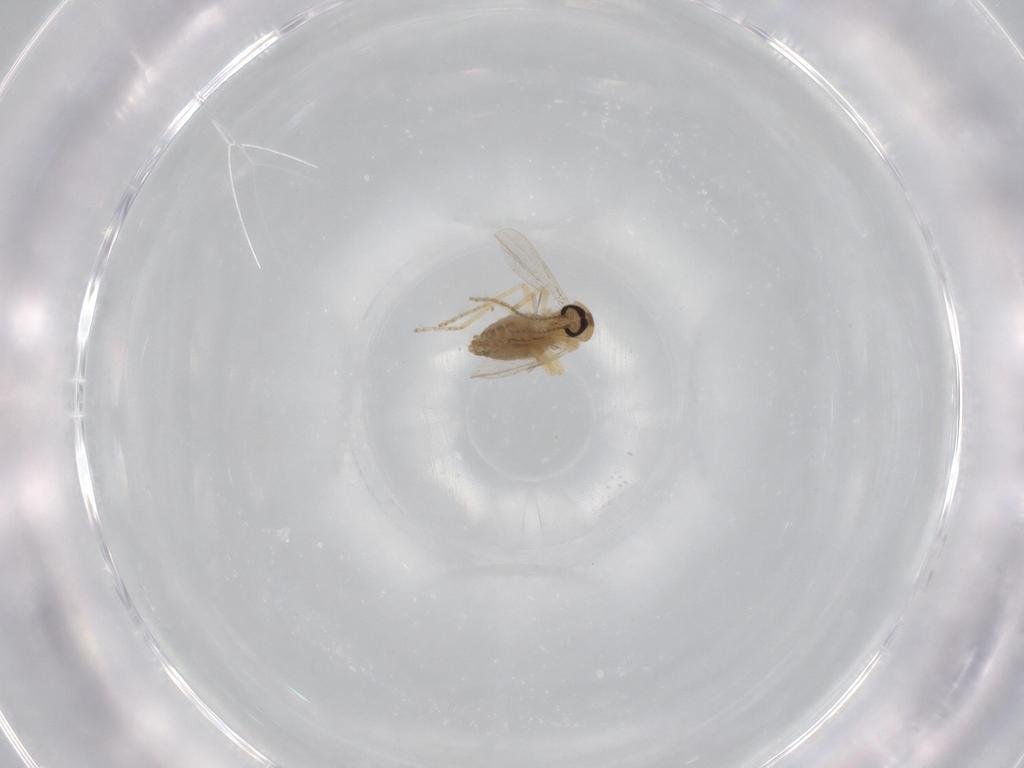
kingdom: Animalia
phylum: Arthropoda
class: Insecta
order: Diptera
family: Ceratopogonidae
